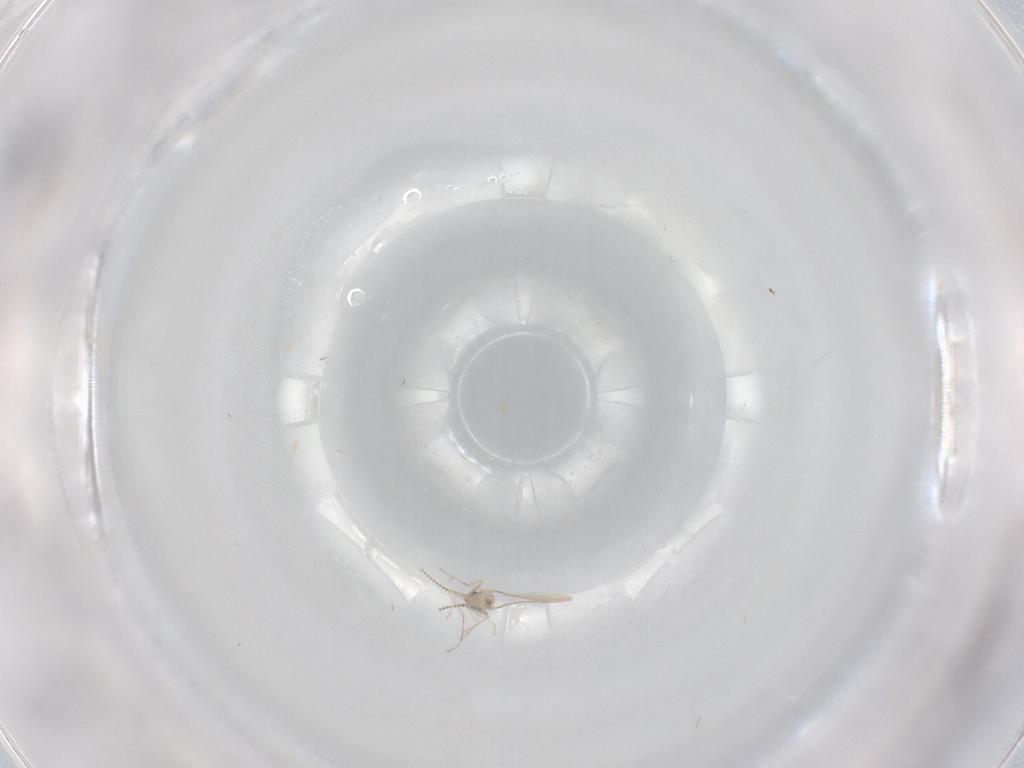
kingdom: Animalia
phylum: Arthropoda
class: Insecta
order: Diptera
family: Cecidomyiidae
